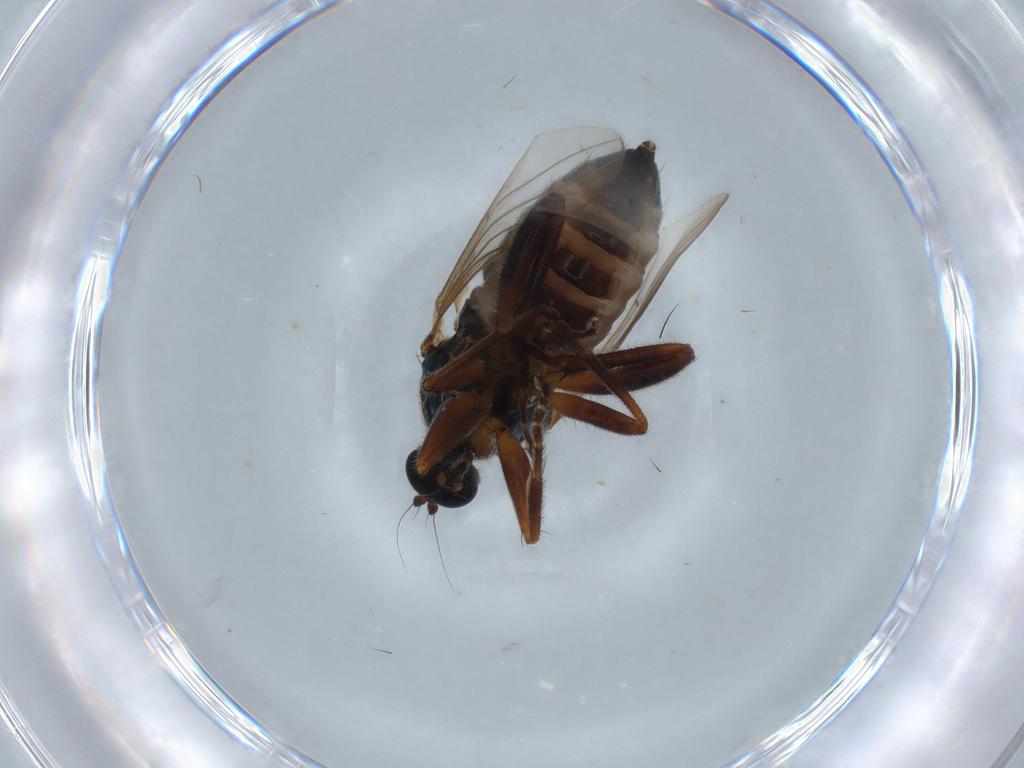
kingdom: Animalia
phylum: Arthropoda
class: Insecta
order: Diptera
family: Hybotidae
